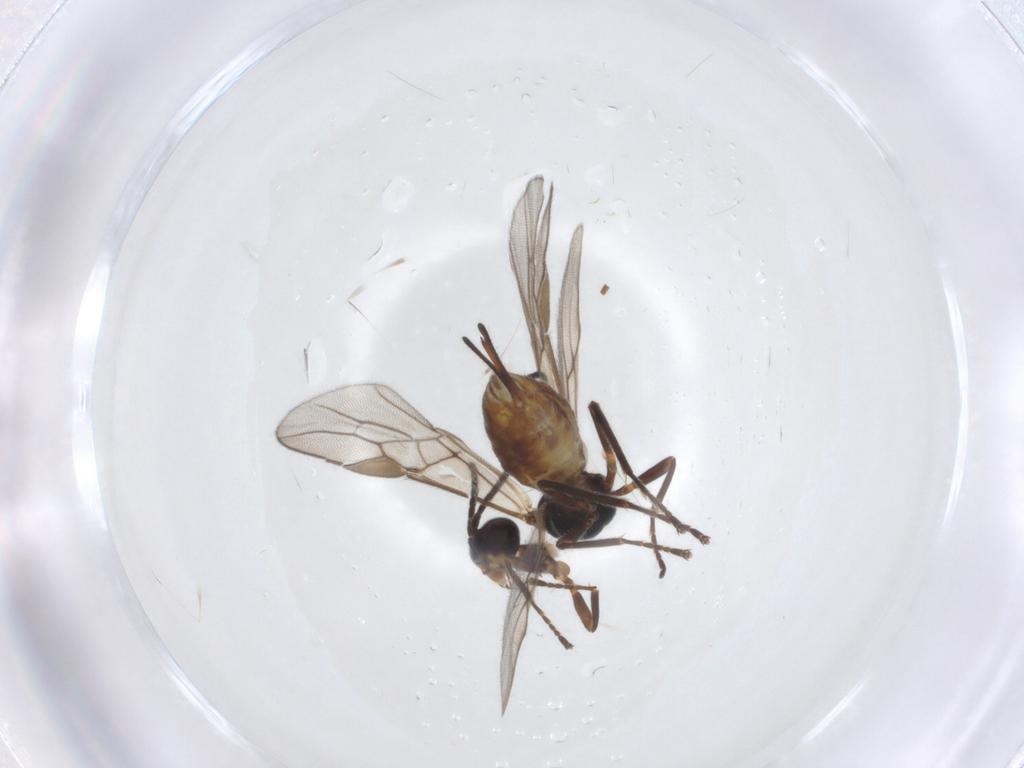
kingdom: Animalia
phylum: Arthropoda
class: Insecta
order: Hymenoptera
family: Braconidae
